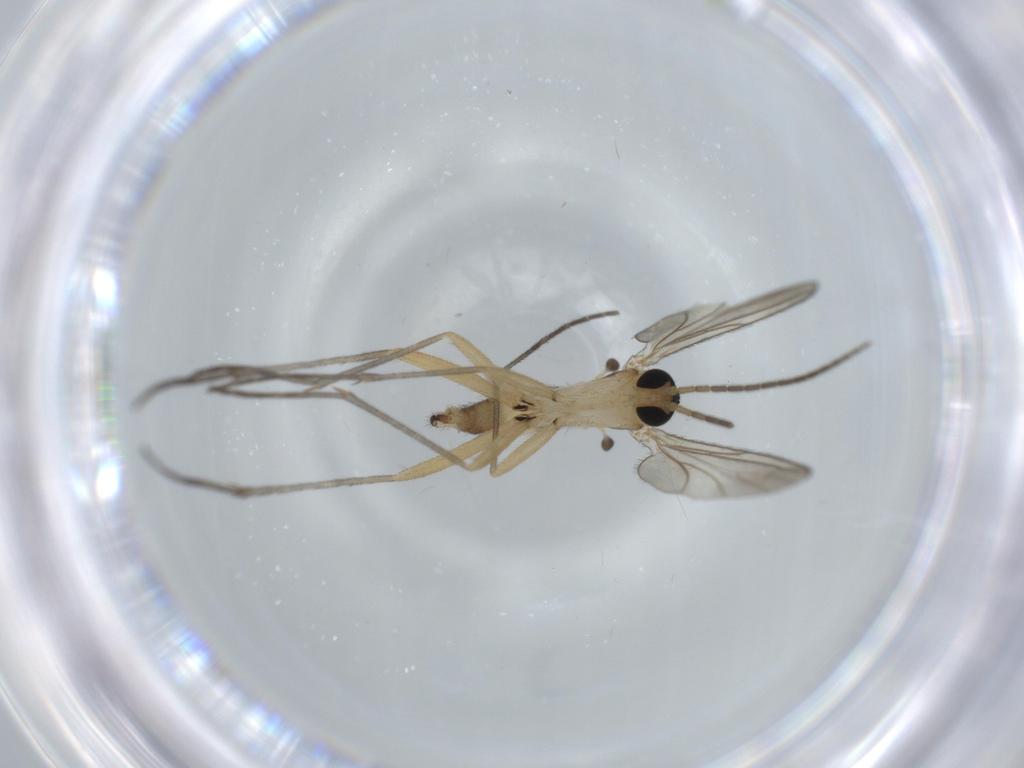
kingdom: Animalia
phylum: Arthropoda
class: Insecta
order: Diptera
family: Sciaridae
